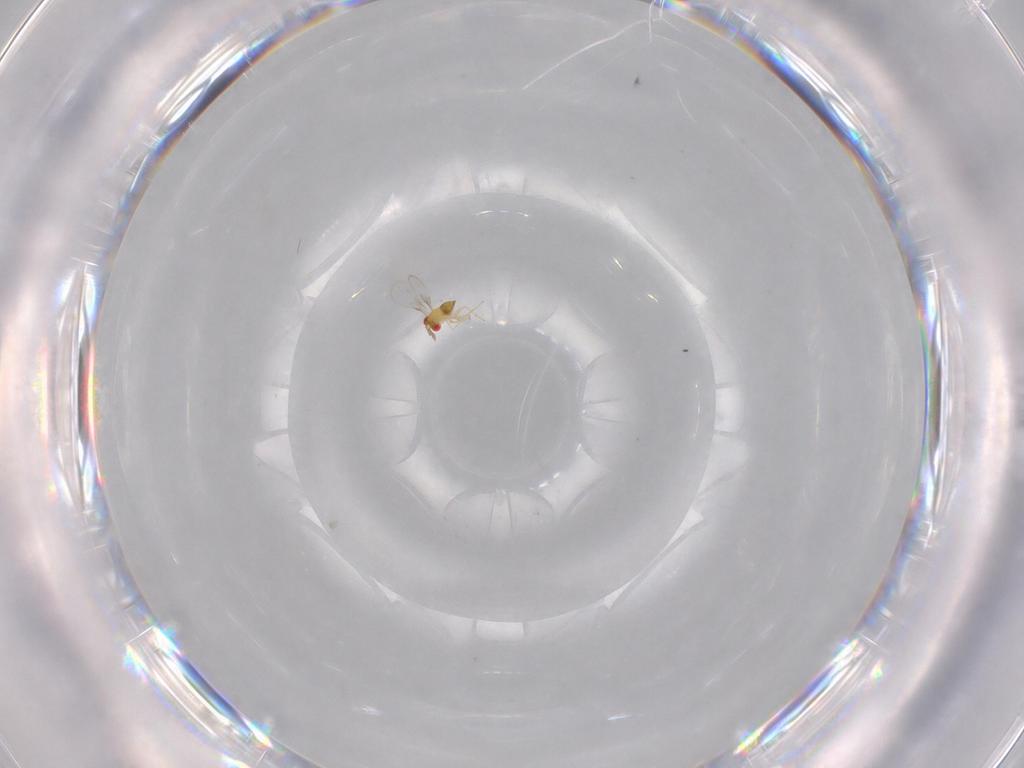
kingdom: Animalia
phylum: Arthropoda
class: Insecta
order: Hymenoptera
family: Trichogrammatidae
